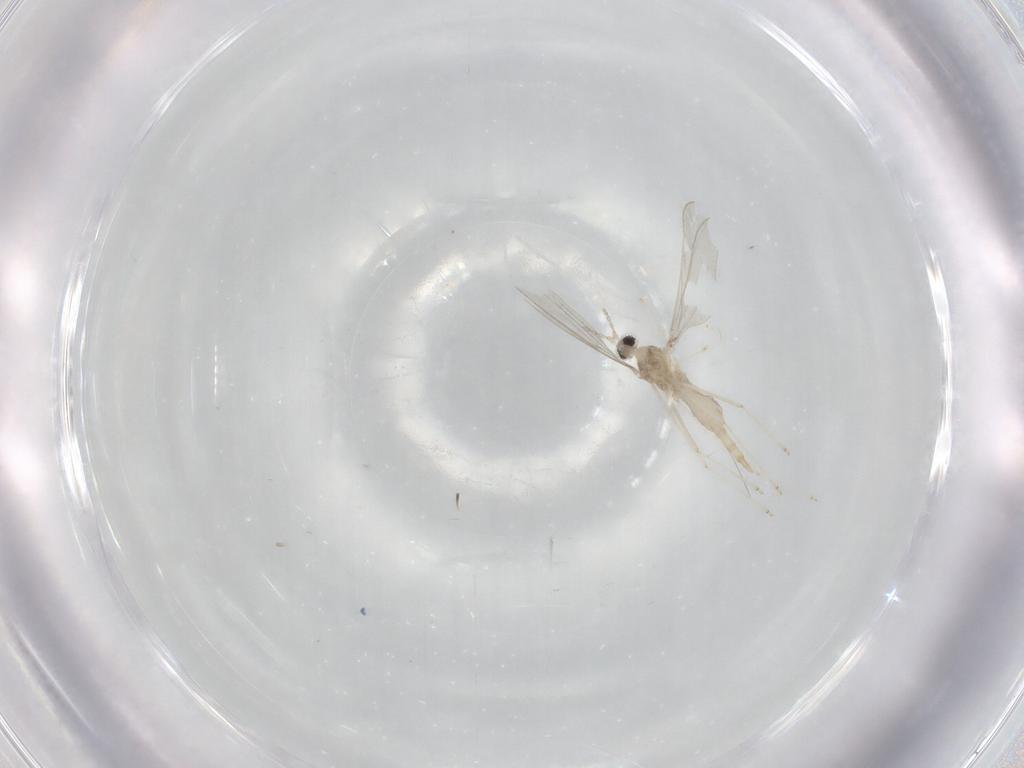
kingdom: Animalia
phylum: Arthropoda
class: Insecta
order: Diptera
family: Cecidomyiidae
